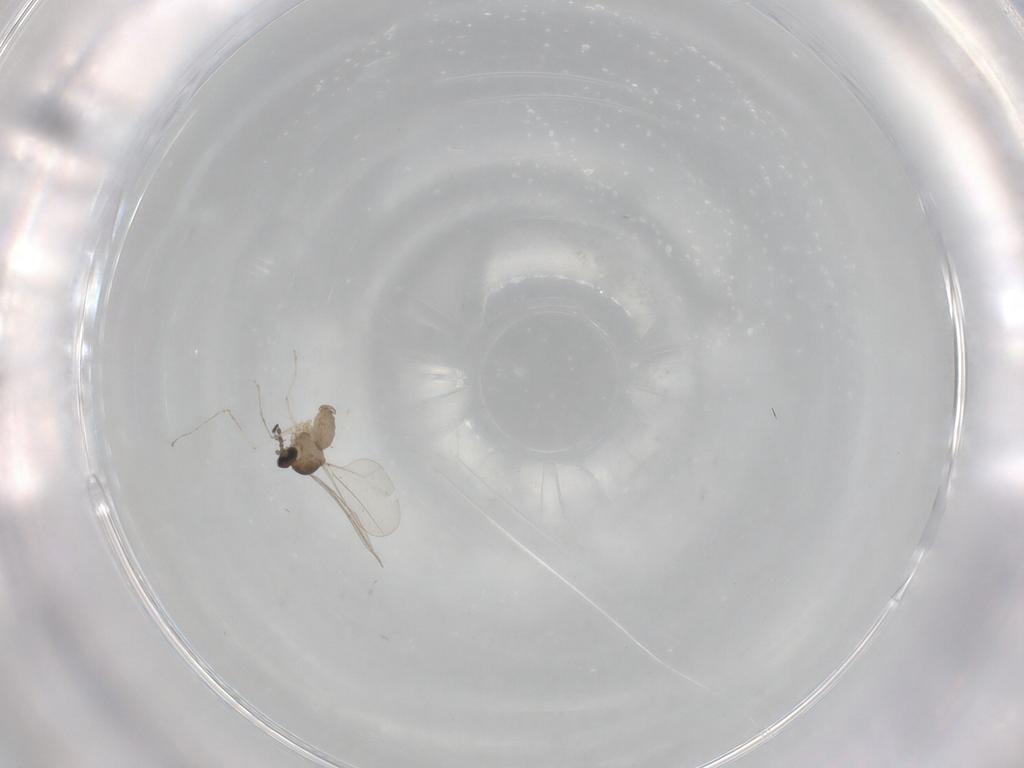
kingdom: Animalia
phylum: Arthropoda
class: Insecta
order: Diptera
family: Cecidomyiidae
